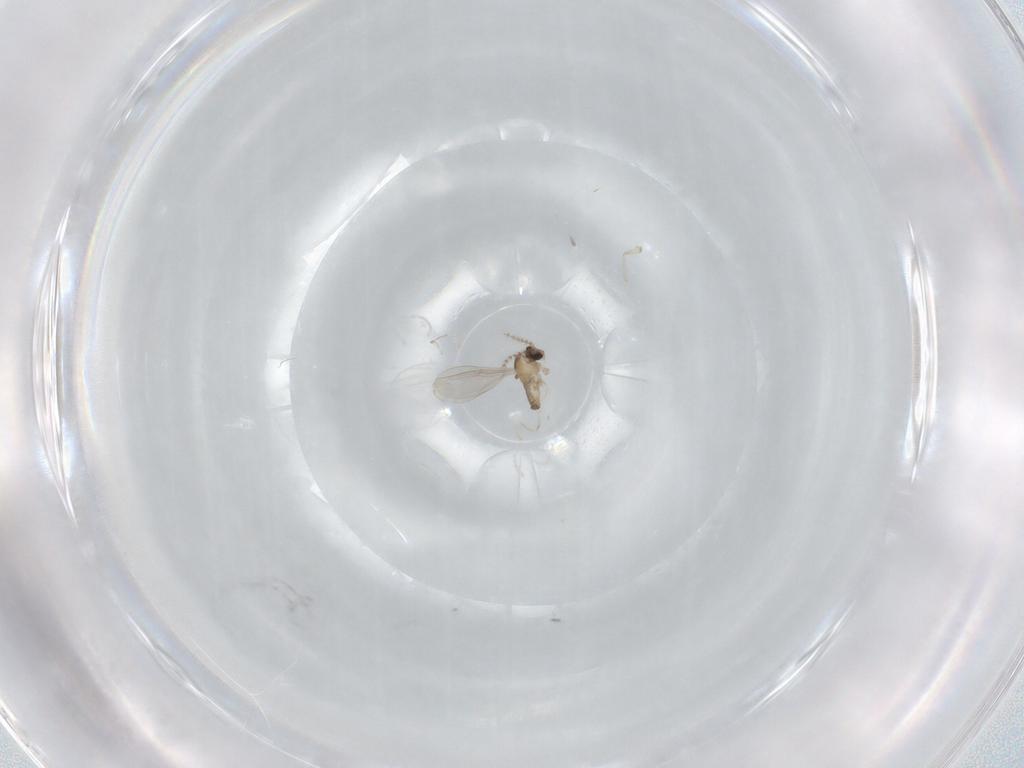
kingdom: Animalia
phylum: Arthropoda
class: Insecta
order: Diptera
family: Cecidomyiidae
